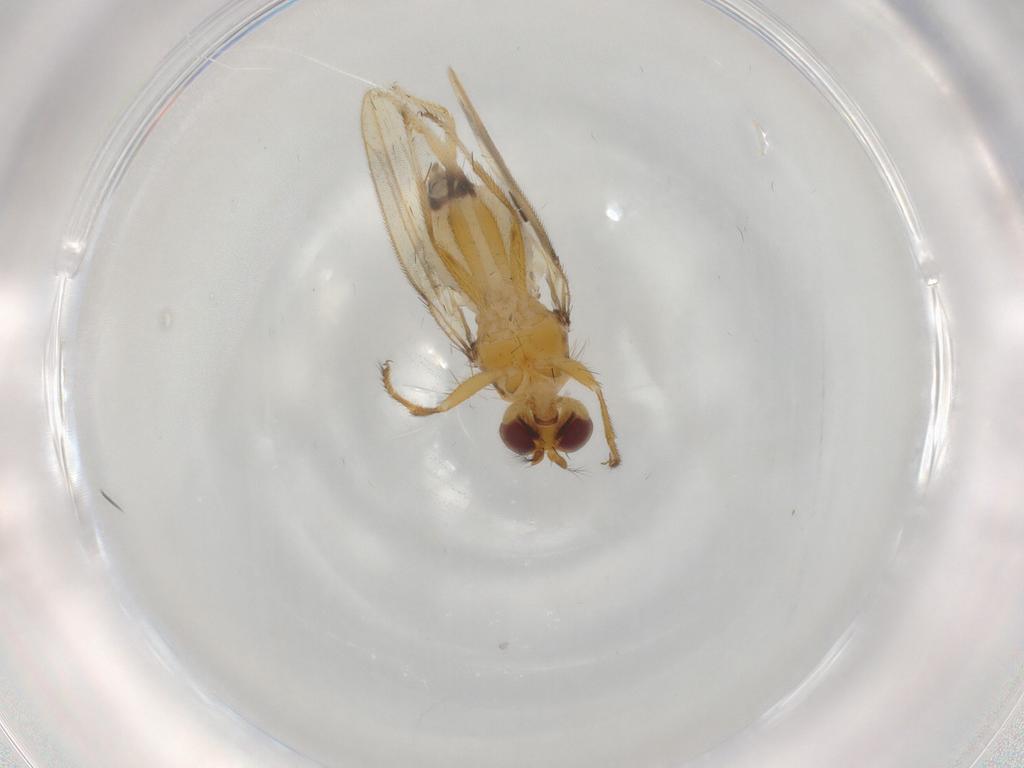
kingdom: Animalia
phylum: Arthropoda
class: Insecta
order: Diptera
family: Periscelididae
